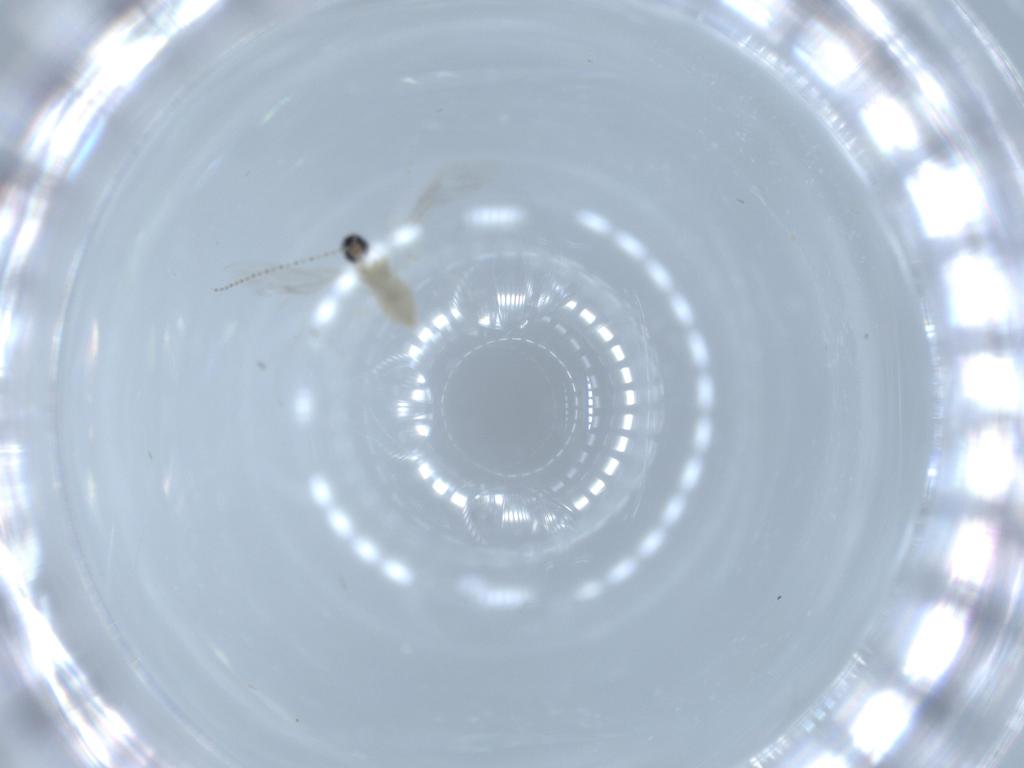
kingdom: Animalia
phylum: Arthropoda
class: Insecta
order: Diptera
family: Cecidomyiidae
